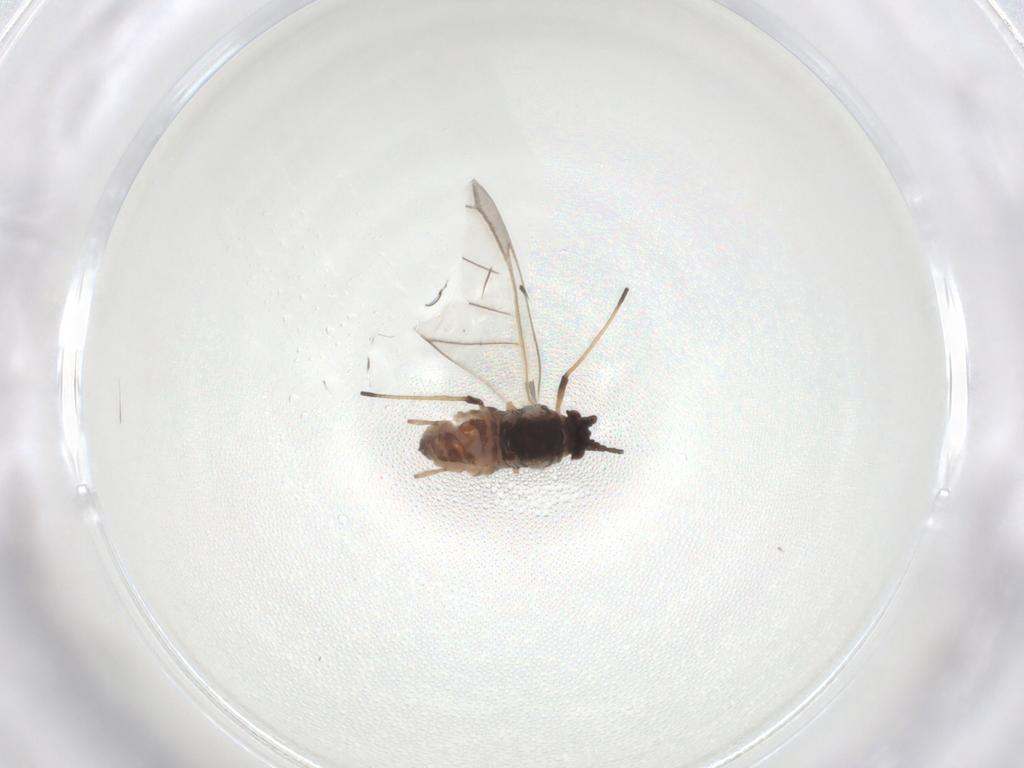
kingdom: Animalia
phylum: Arthropoda
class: Insecta
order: Hemiptera
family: Aphididae
